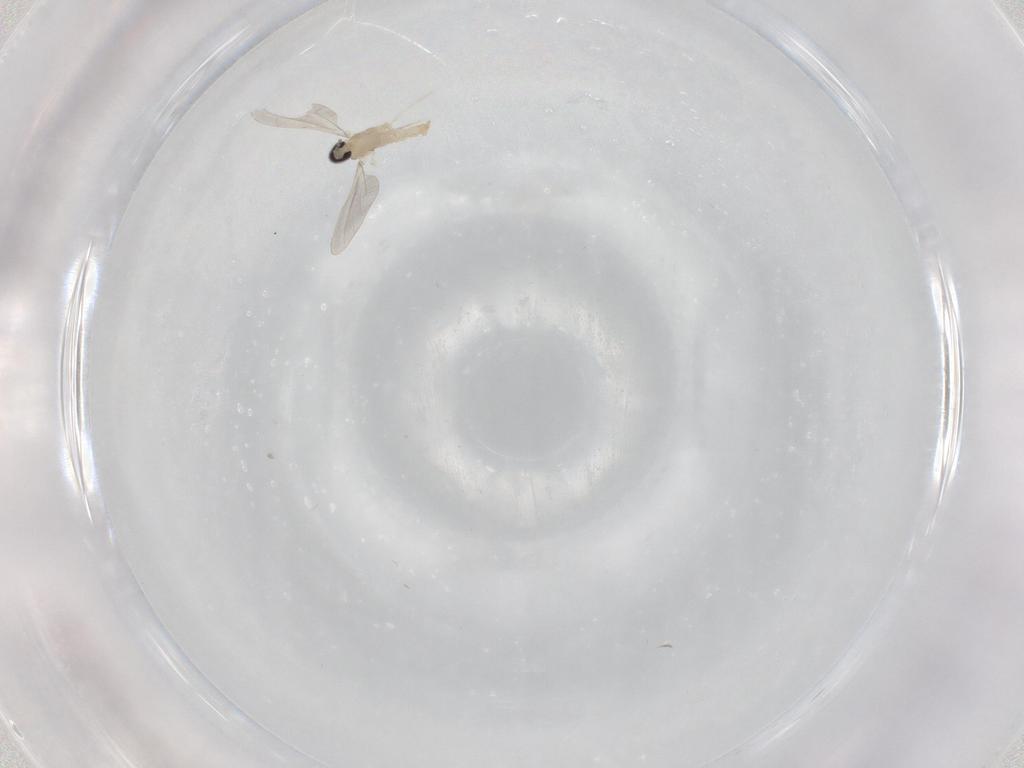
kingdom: Animalia
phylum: Arthropoda
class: Insecta
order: Diptera
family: Cecidomyiidae
